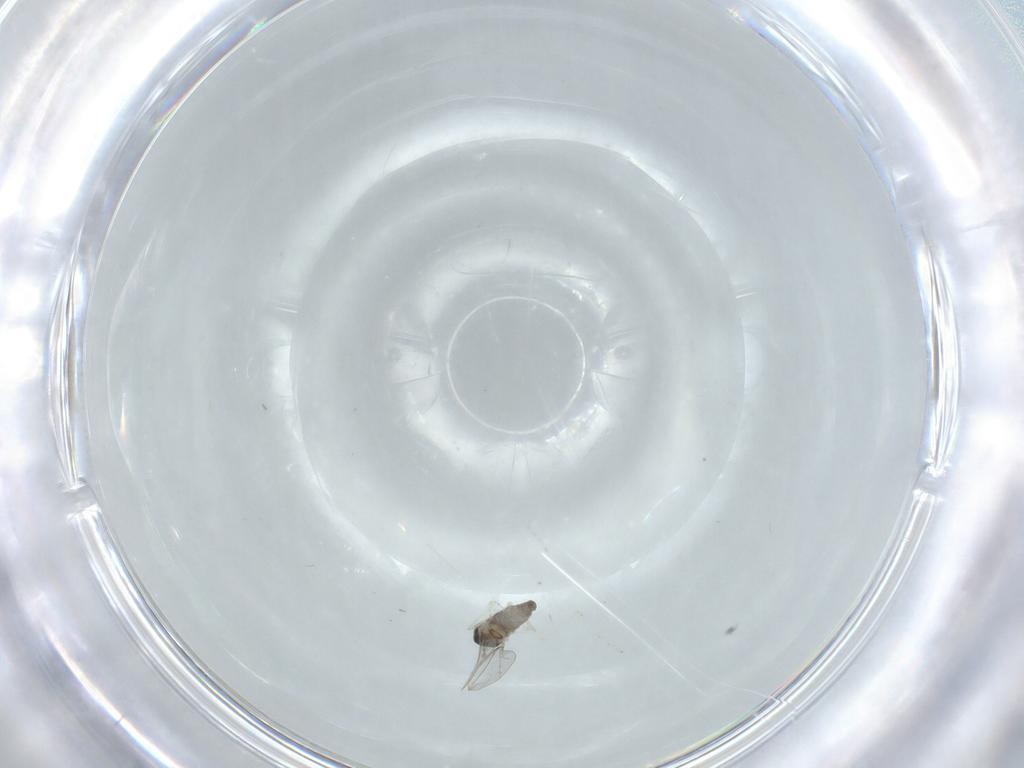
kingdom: Animalia
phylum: Arthropoda
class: Insecta
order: Diptera
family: Cecidomyiidae
